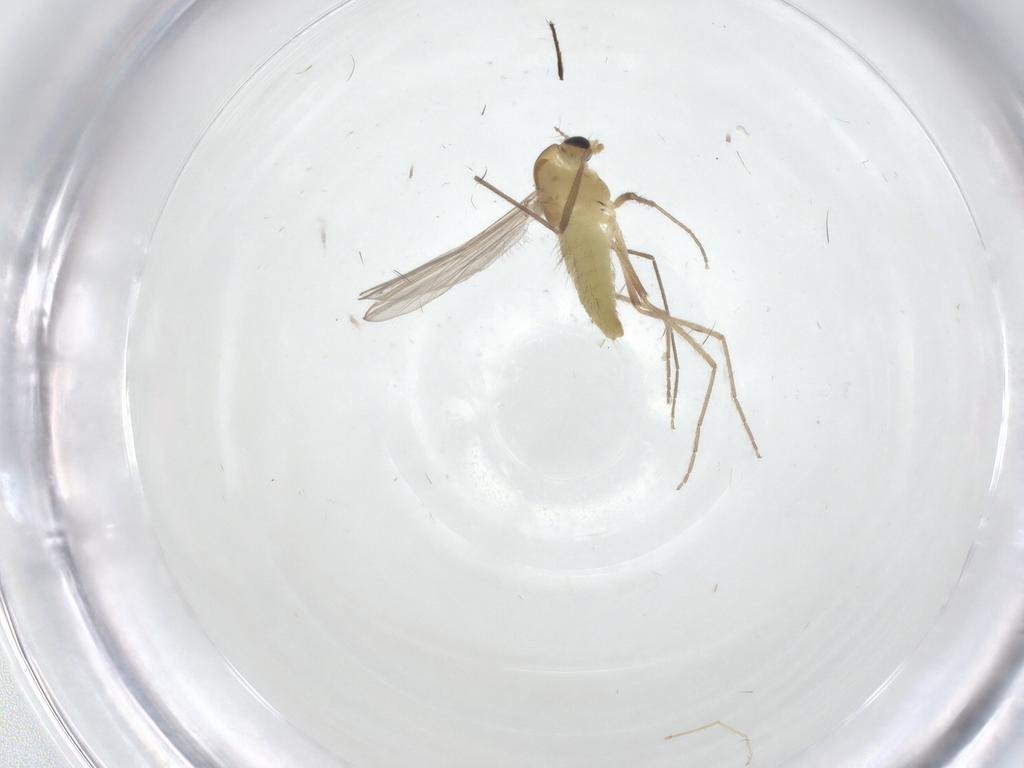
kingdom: Animalia
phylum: Arthropoda
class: Insecta
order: Diptera
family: Chironomidae
